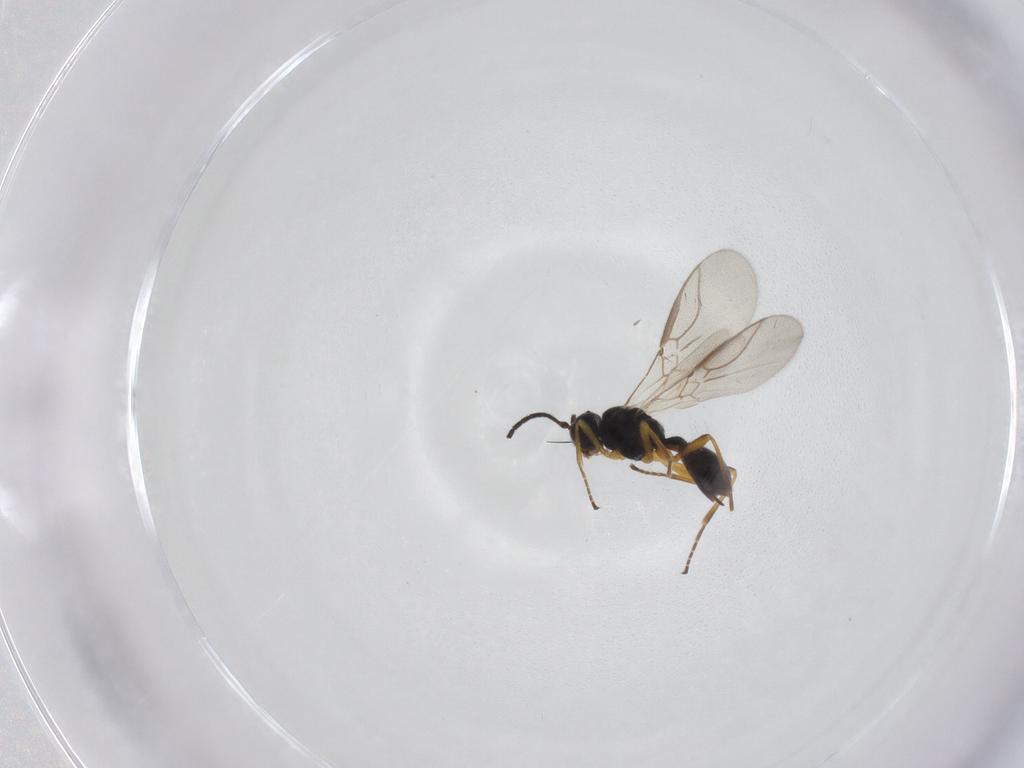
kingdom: Animalia
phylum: Arthropoda
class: Insecta
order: Hymenoptera
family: Braconidae
